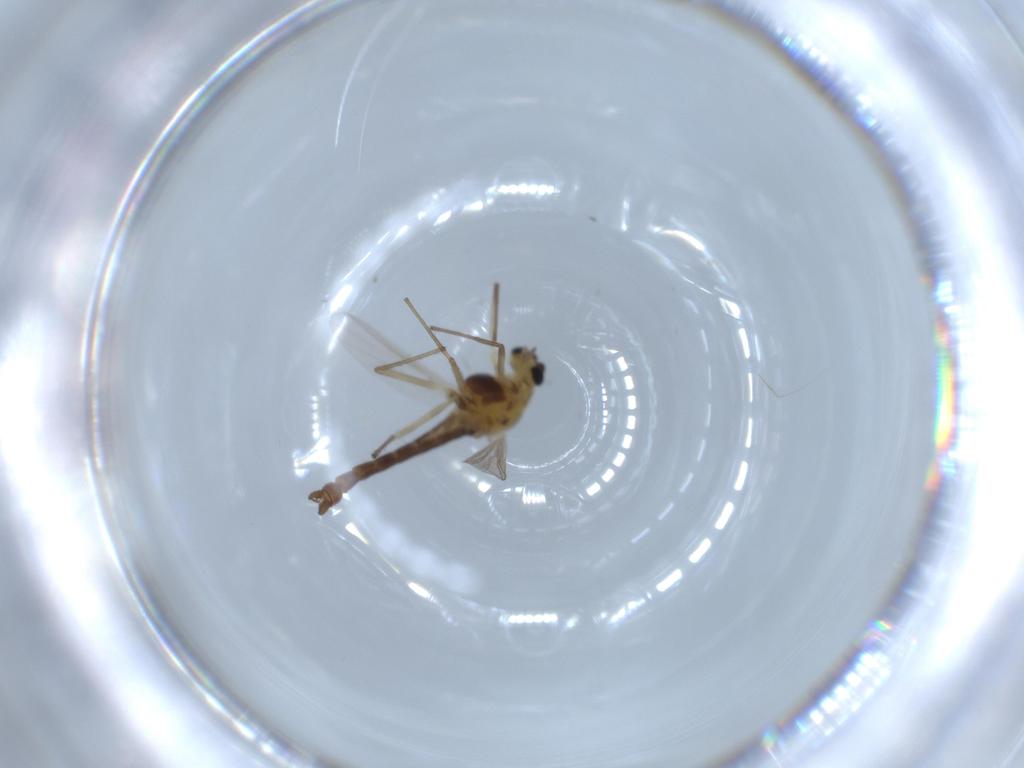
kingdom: Animalia
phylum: Arthropoda
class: Insecta
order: Diptera
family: Chironomidae
